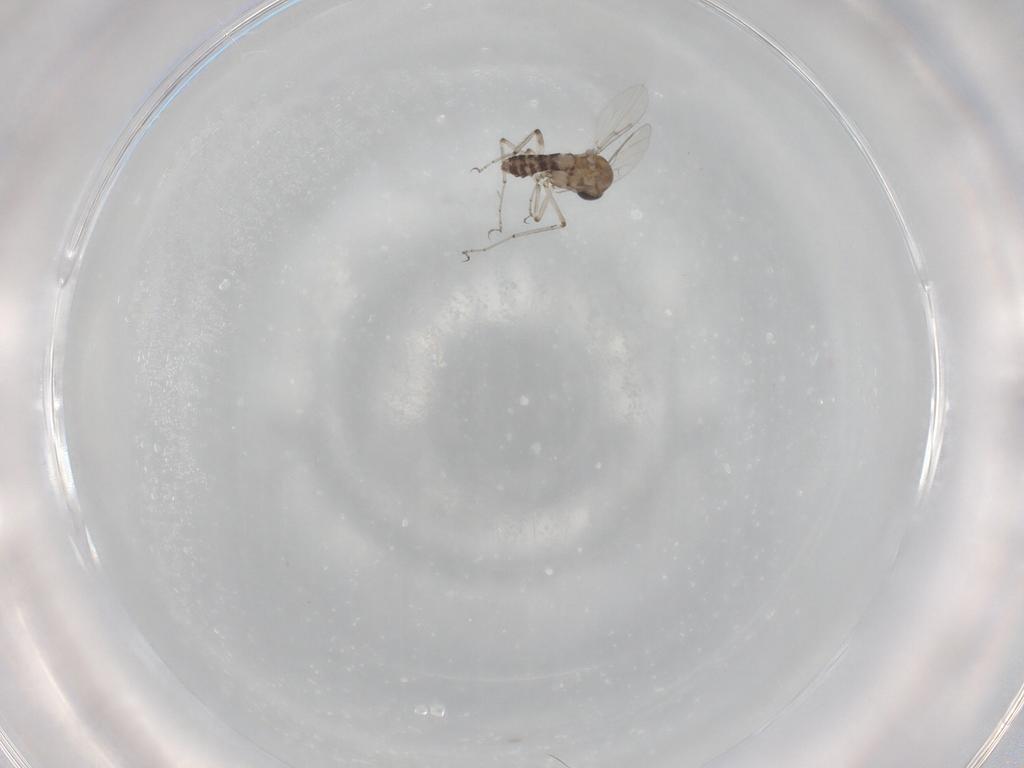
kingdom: Animalia
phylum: Arthropoda
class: Insecta
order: Diptera
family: Ceratopogonidae
